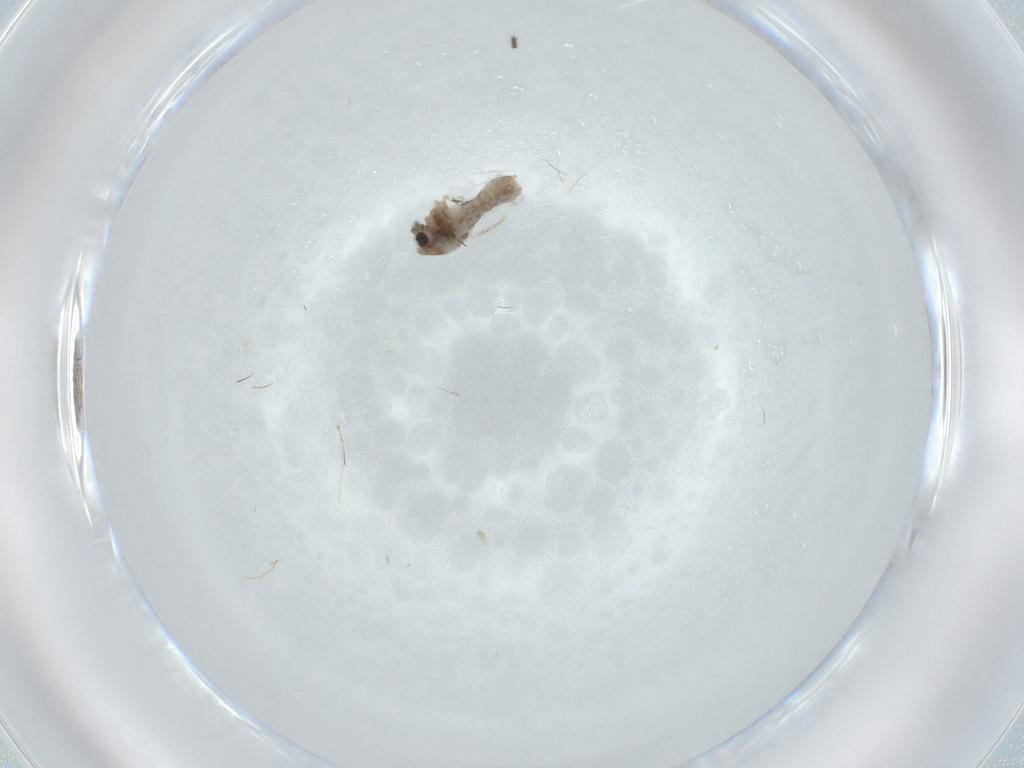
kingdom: Animalia
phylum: Arthropoda
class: Insecta
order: Diptera
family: Chironomidae
